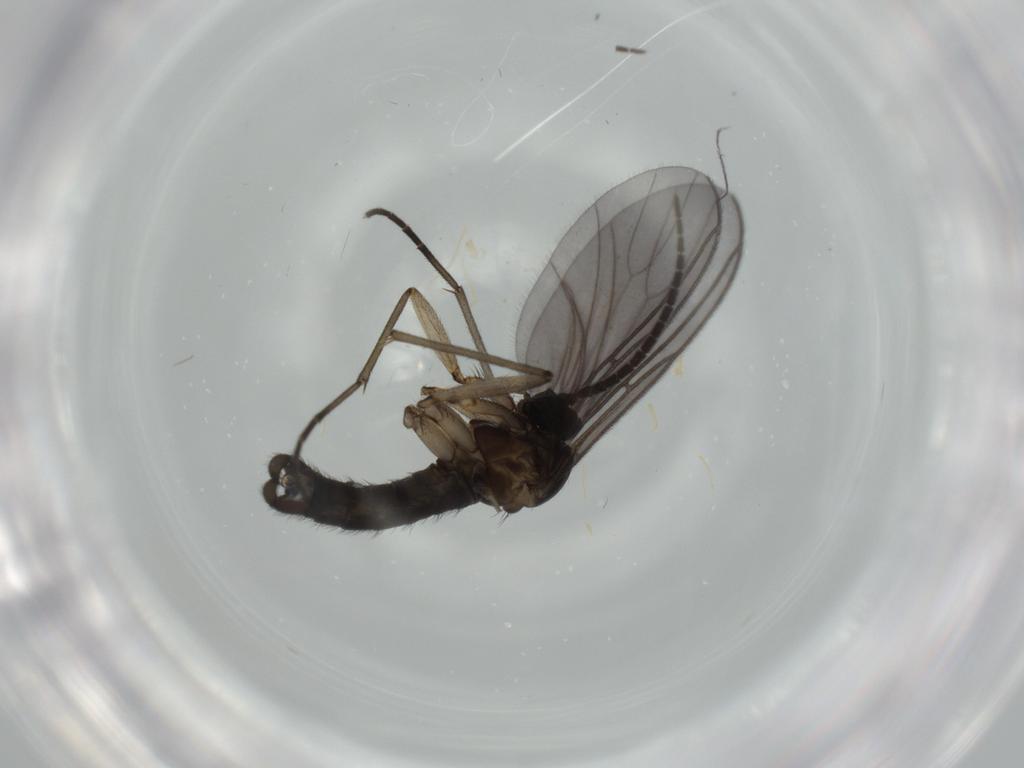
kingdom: Animalia
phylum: Arthropoda
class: Insecta
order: Diptera
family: Sciaridae
